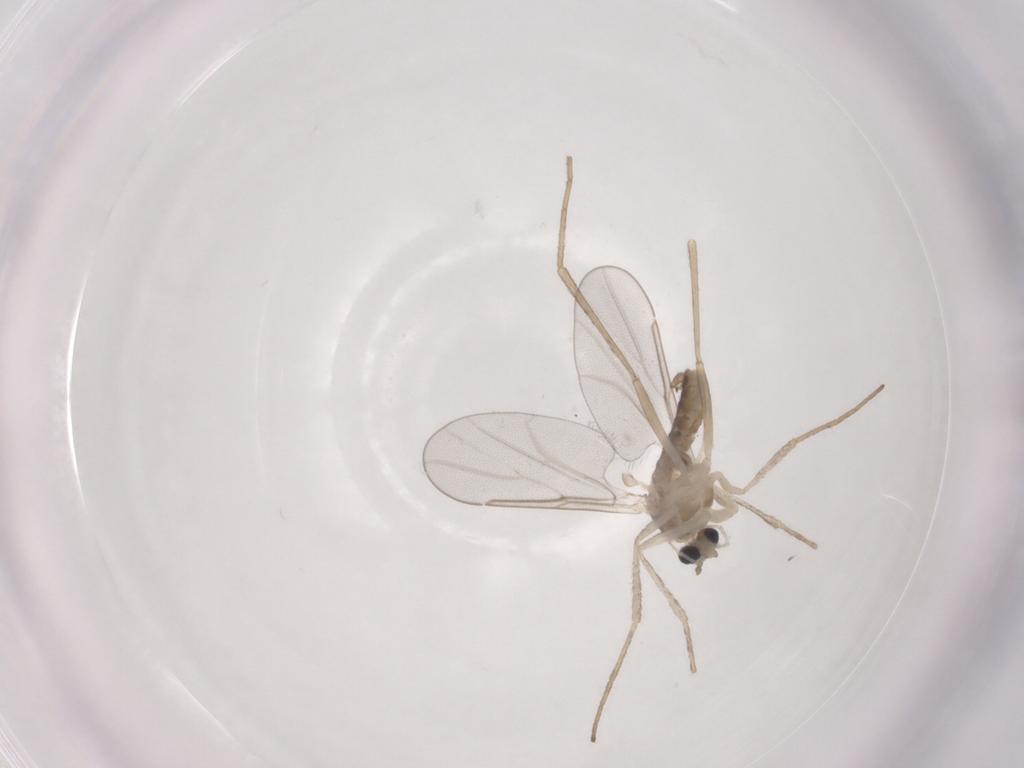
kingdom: Animalia
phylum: Arthropoda
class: Insecta
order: Diptera
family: Cecidomyiidae
